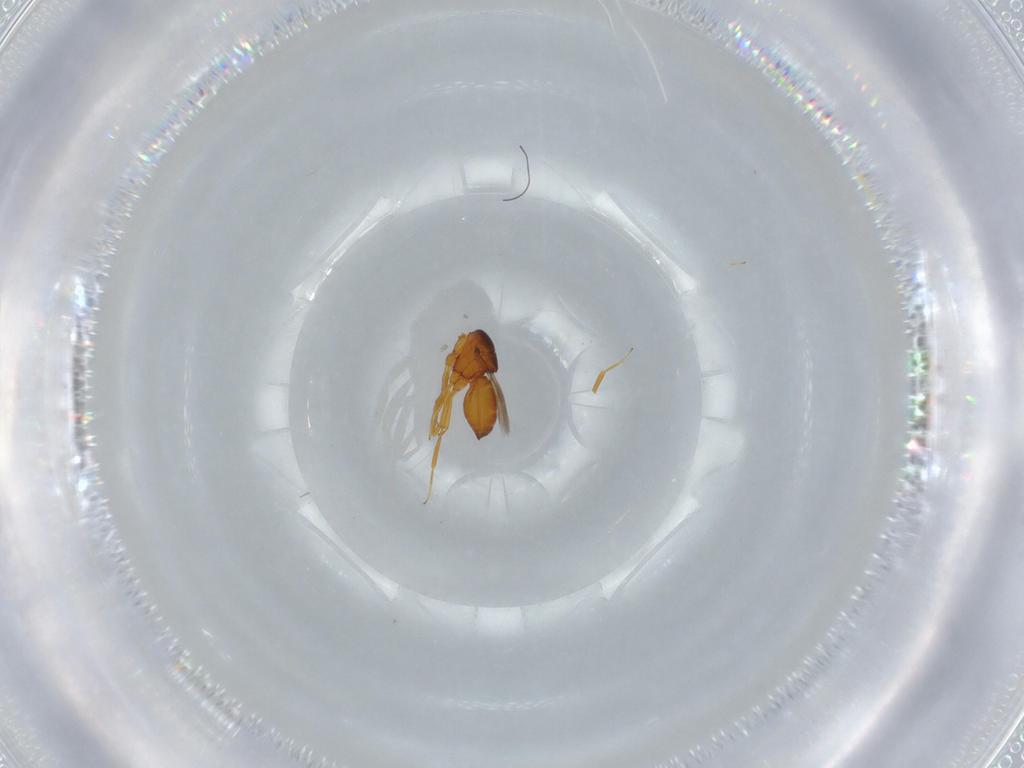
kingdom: Animalia
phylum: Arthropoda
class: Insecta
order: Hymenoptera
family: Scelionidae
